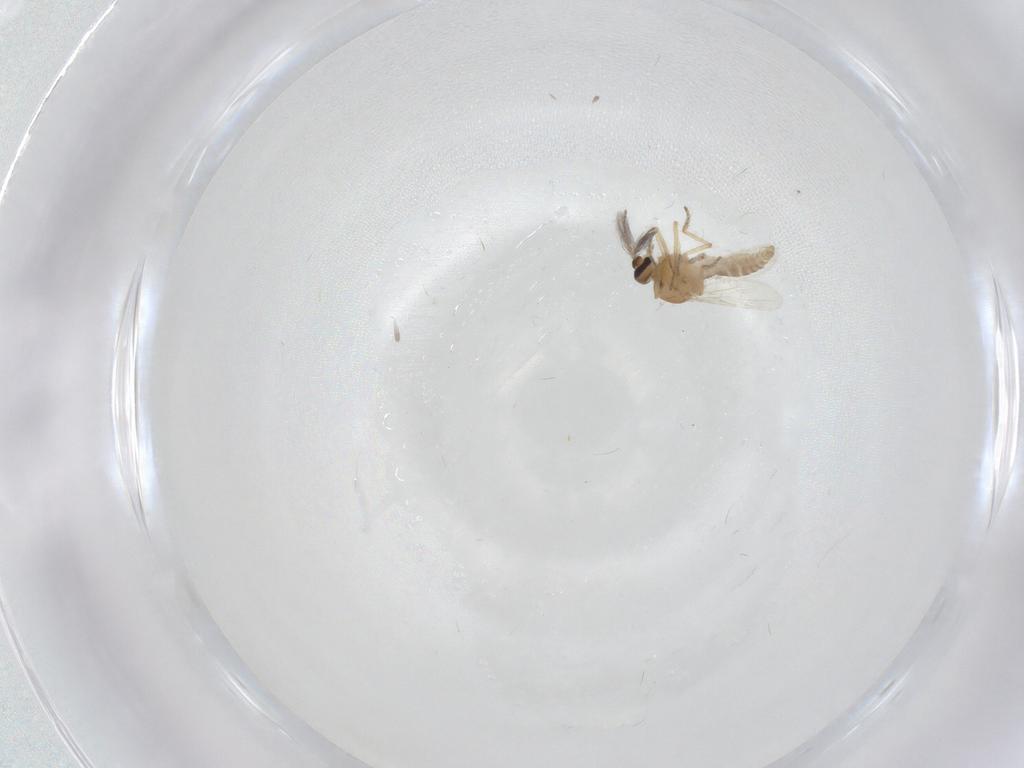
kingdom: Animalia
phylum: Arthropoda
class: Insecta
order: Diptera
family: Ceratopogonidae
